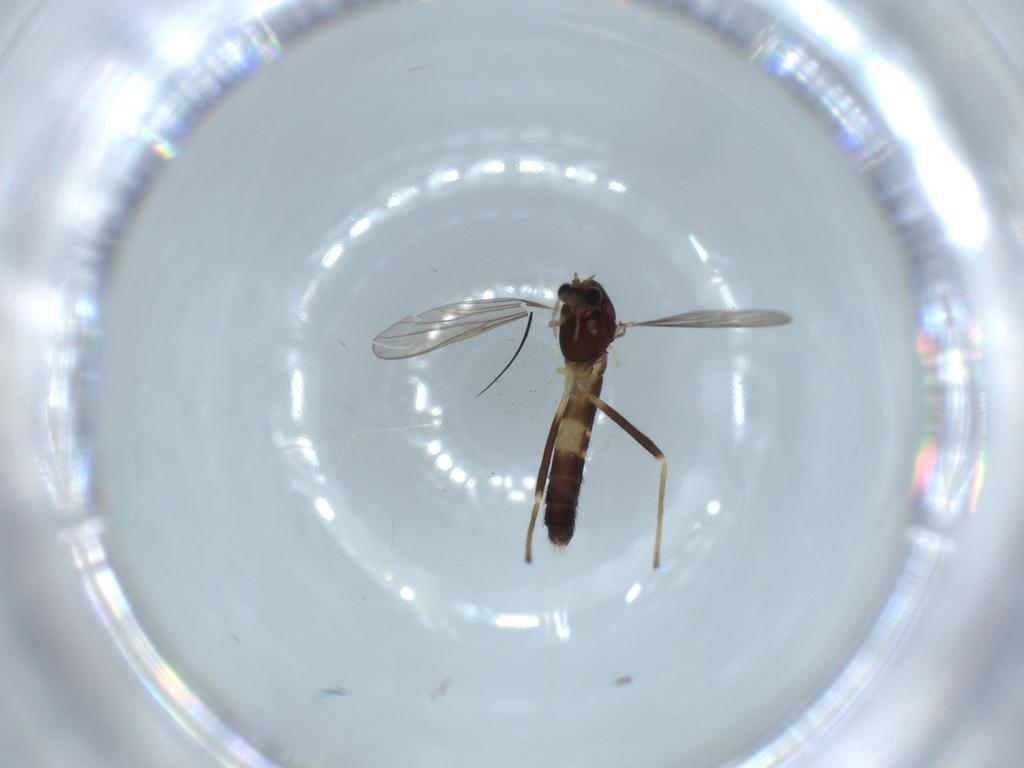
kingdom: Animalia
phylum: Arthropoda
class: Insecta
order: Diptera
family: Chironomidae
